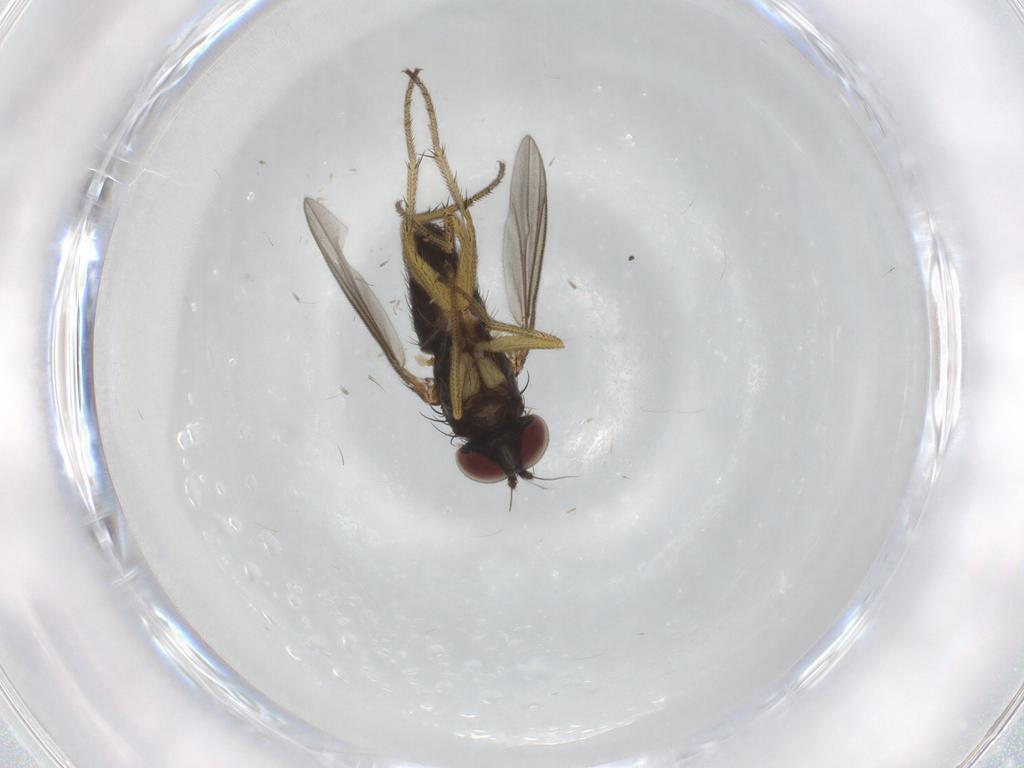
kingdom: Animalia
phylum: Arthropoda
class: Insecta
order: Diptera
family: Dolichopodidae
